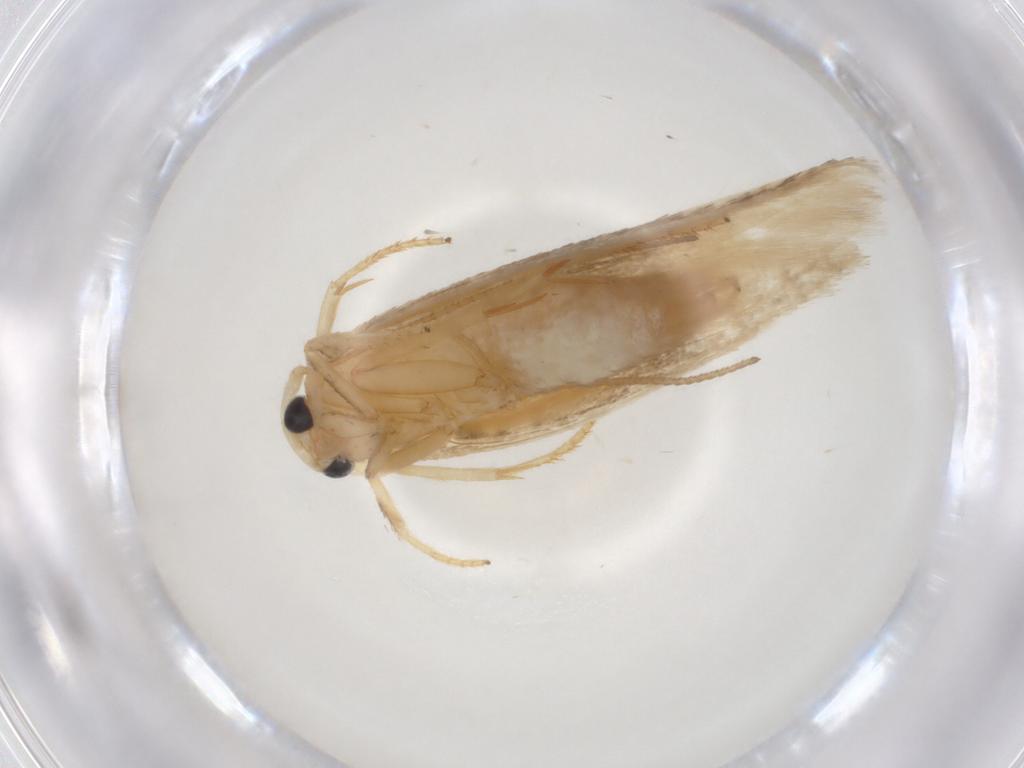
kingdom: Animalia
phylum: Arthropoda
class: Insecta
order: Lepidoptera
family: Geometridae
